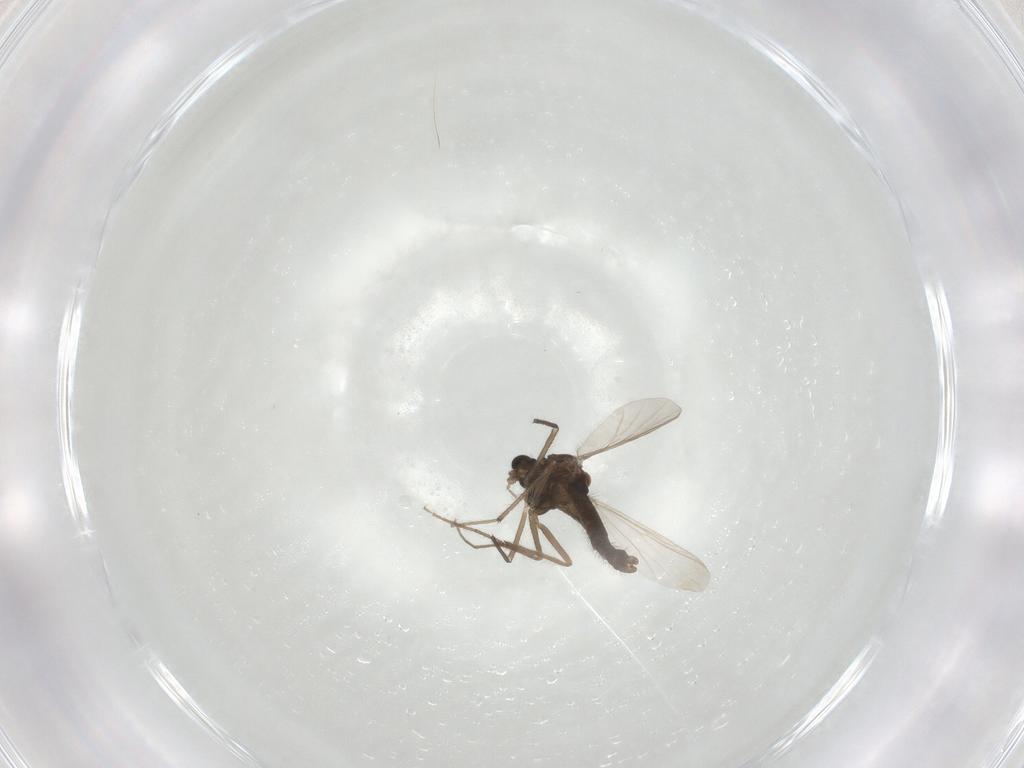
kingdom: Animalia
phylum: Arthropoda
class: Insecta
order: Diptera
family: Chironomidae
